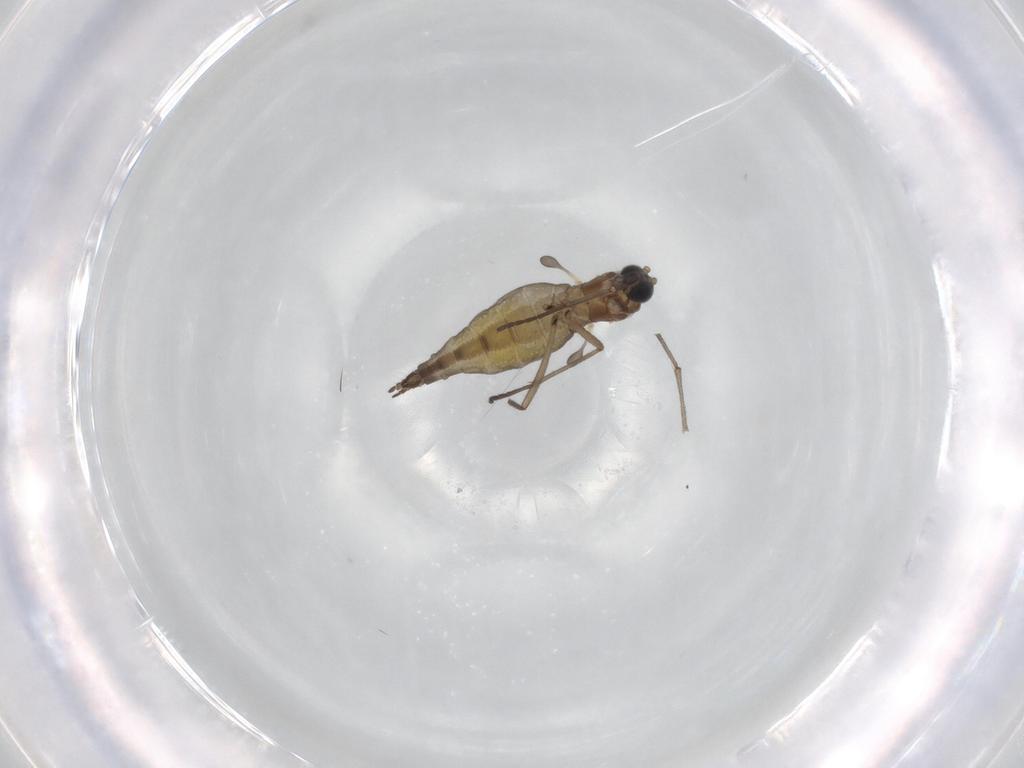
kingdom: Animalia
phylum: Arthropoda
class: Insecta
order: Diptera
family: Sciaridae
